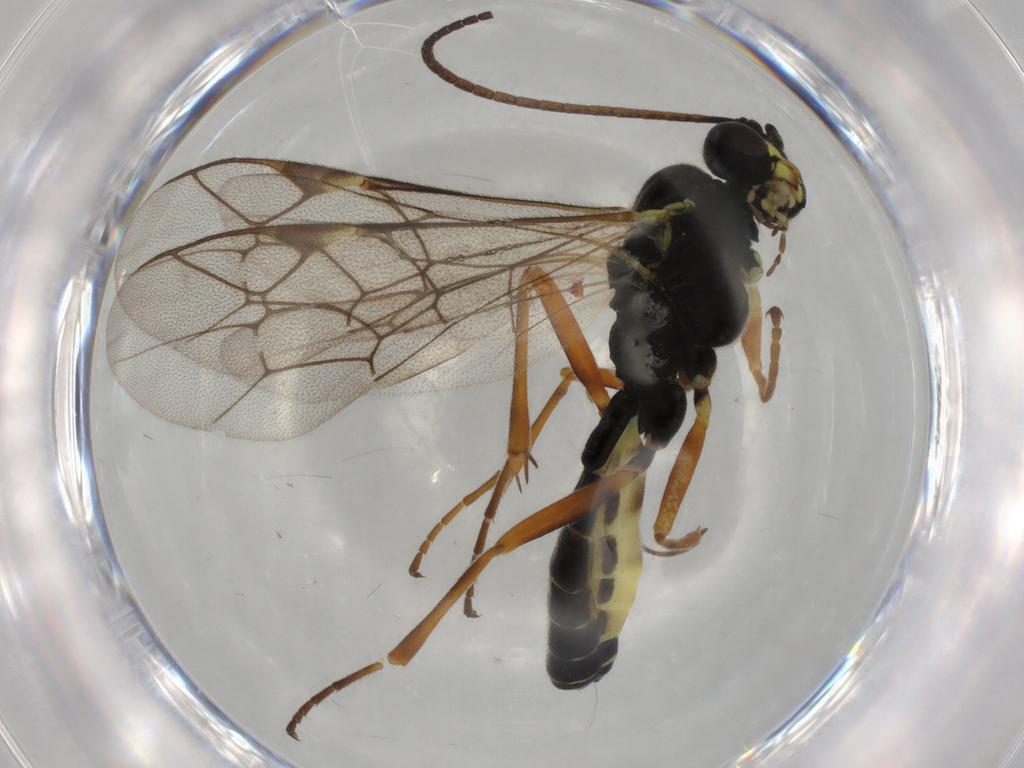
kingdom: Animalia
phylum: Arthropoda
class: Insecta
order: Hymenoptera
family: Ichneumonidae
